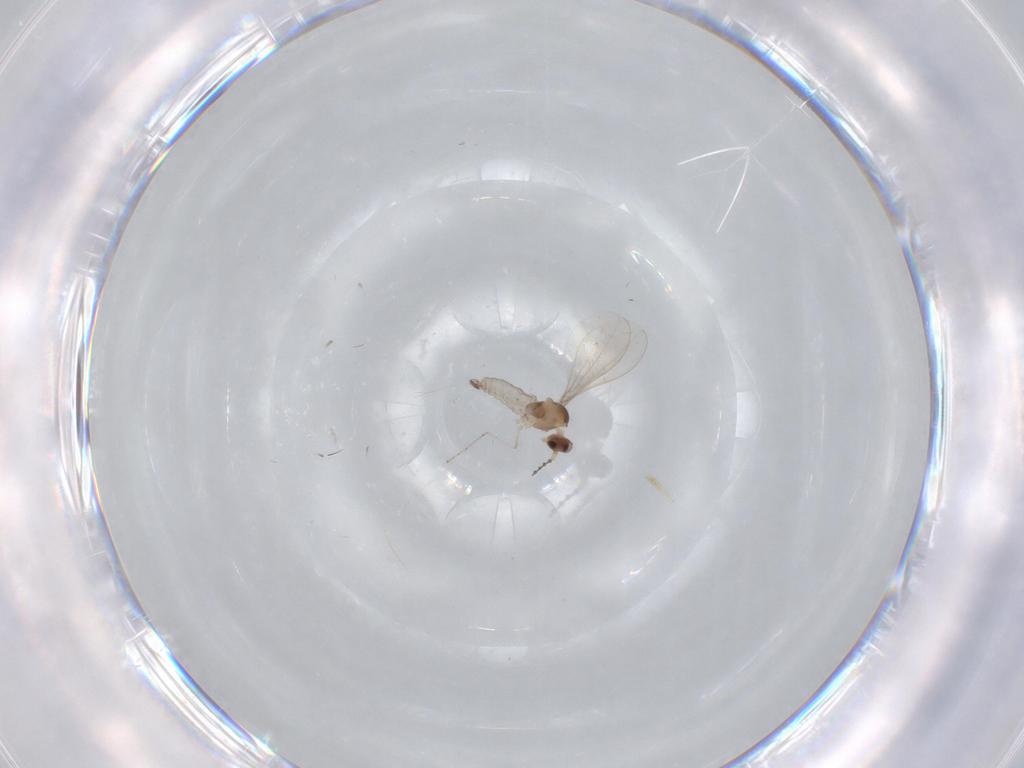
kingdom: Animalia
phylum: Arthropoda
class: Insecta
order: Diptera
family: Cecidomyiidae
